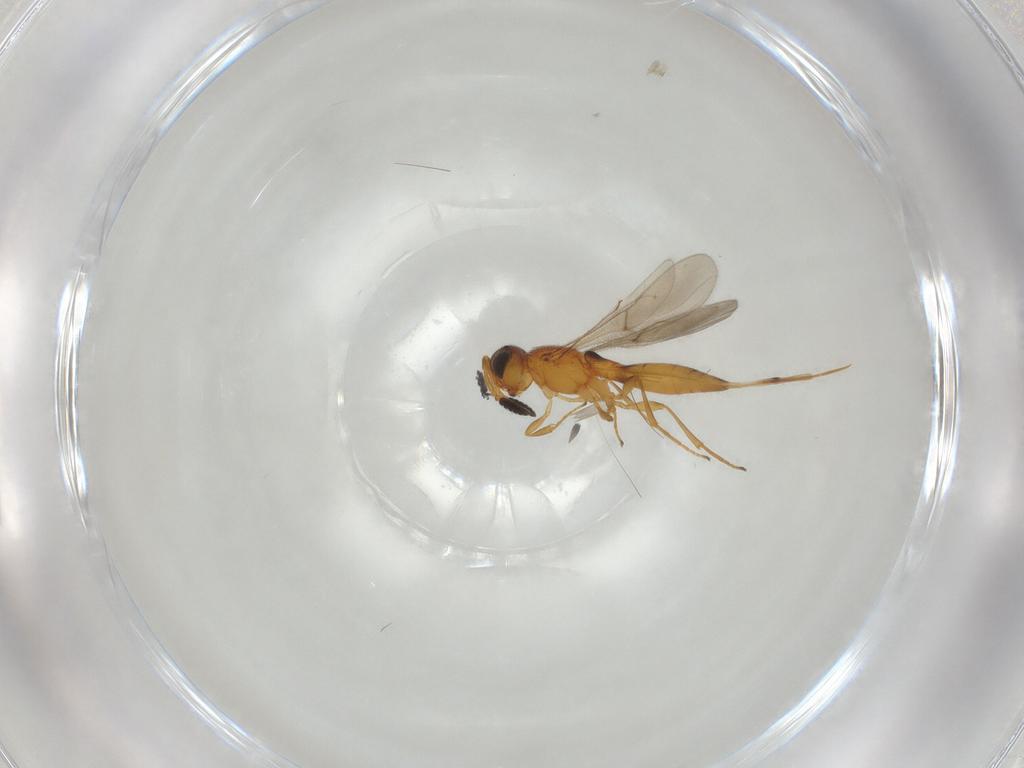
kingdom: Animalia
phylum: Arthropoda
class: Insecta
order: Hymenoptera
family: Scelionidae
